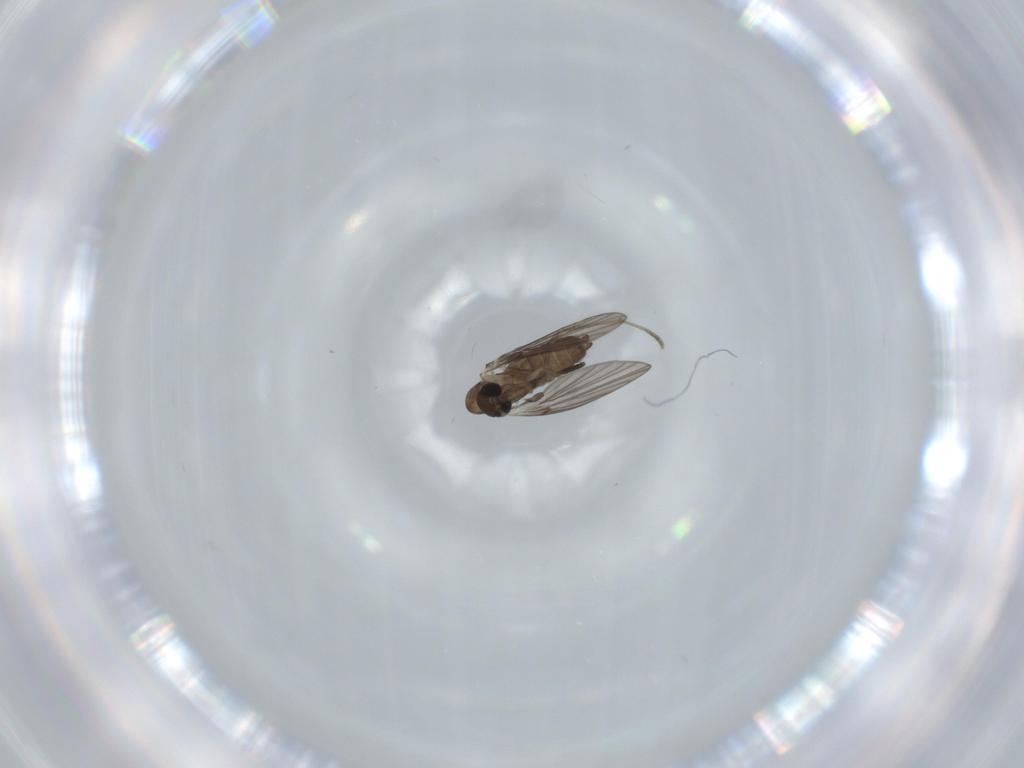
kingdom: Animalia
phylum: Arthropoda
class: Insecta
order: Diptera
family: Psychodidae
